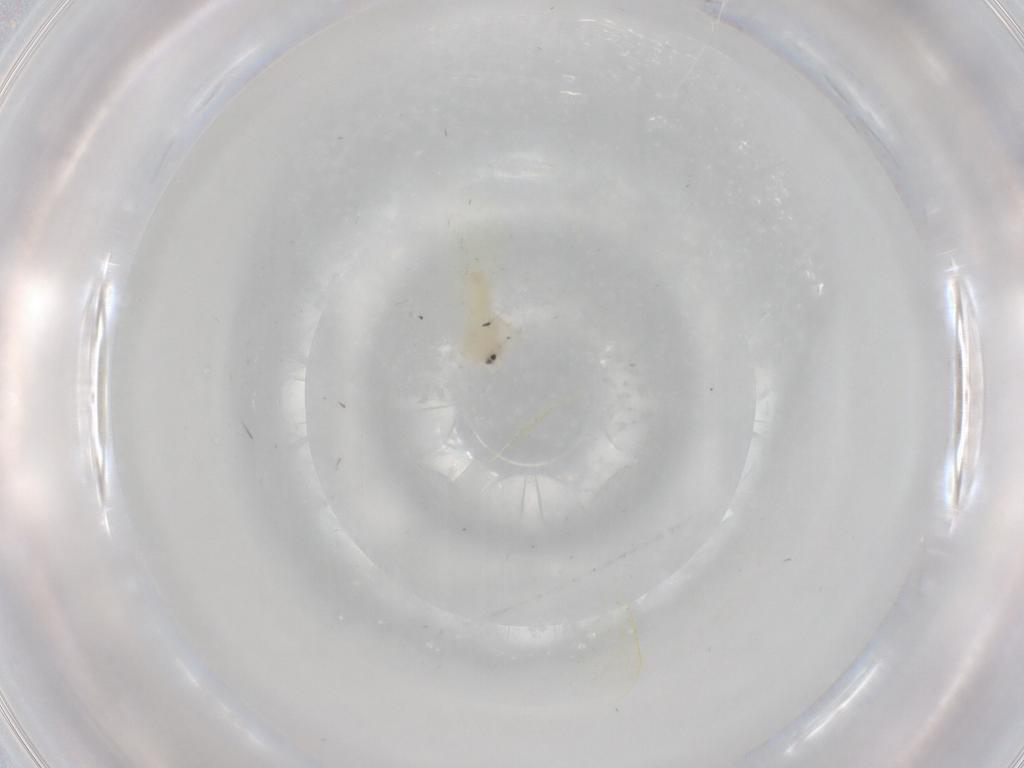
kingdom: Animalia
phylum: Arthropoda
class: Insecta
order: Hemiptera
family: Aleyrodidae
